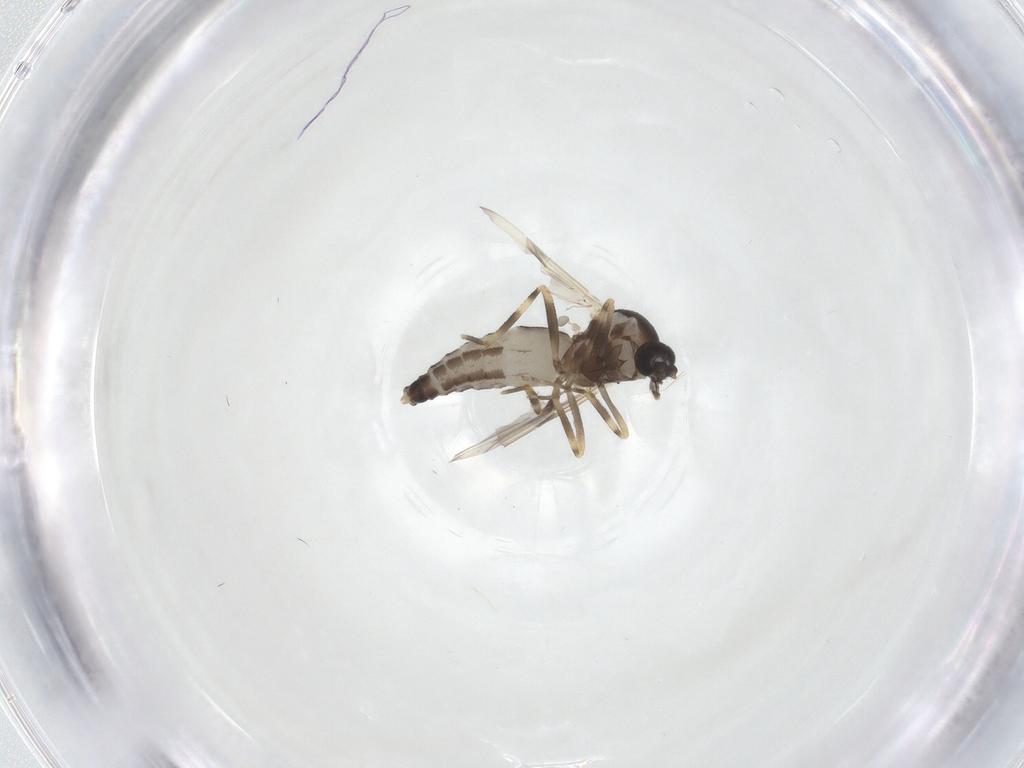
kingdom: Animalia
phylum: Arthropoda
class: Insecta
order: Diptera
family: Ceratopogonidae
